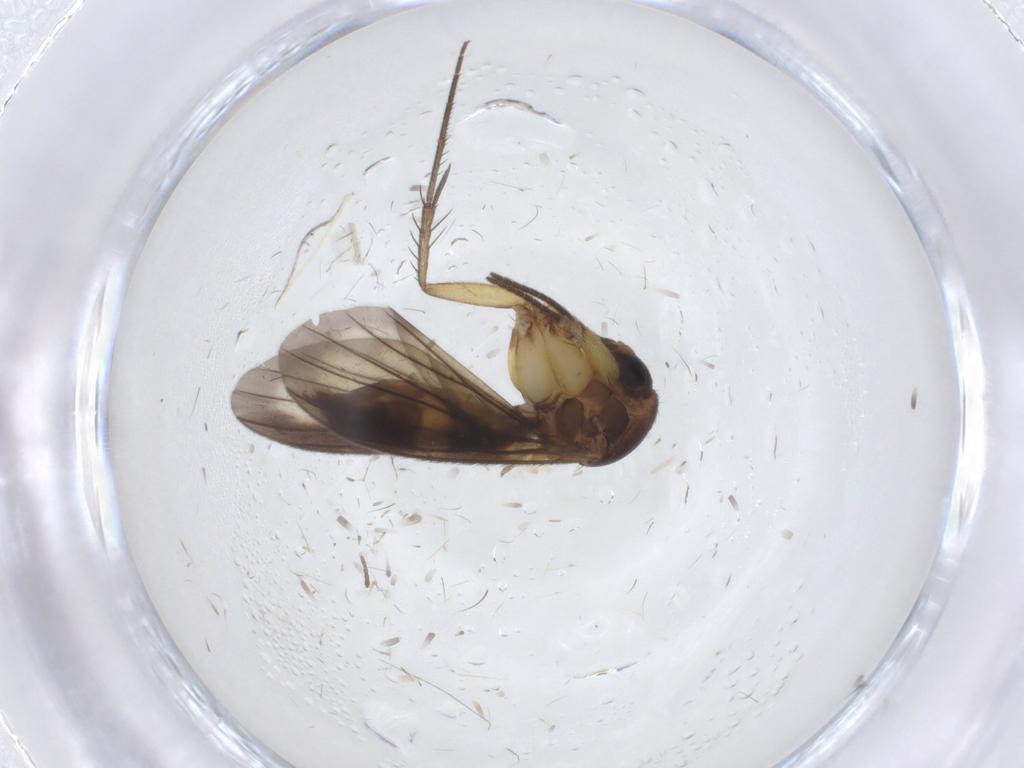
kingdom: Animalia
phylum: Arthropoda
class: Insecta
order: Diptera
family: Mycetophilidae
